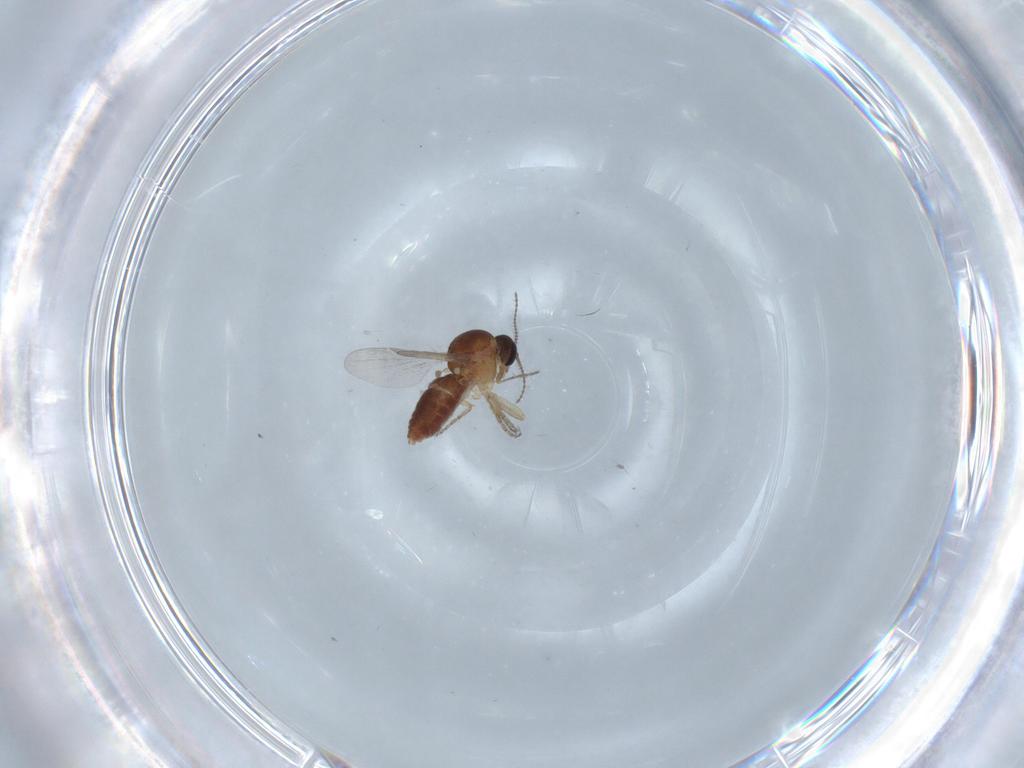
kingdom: Animalia
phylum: Arthropoda
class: Insecta
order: Diptera
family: Ceratopogonidae
